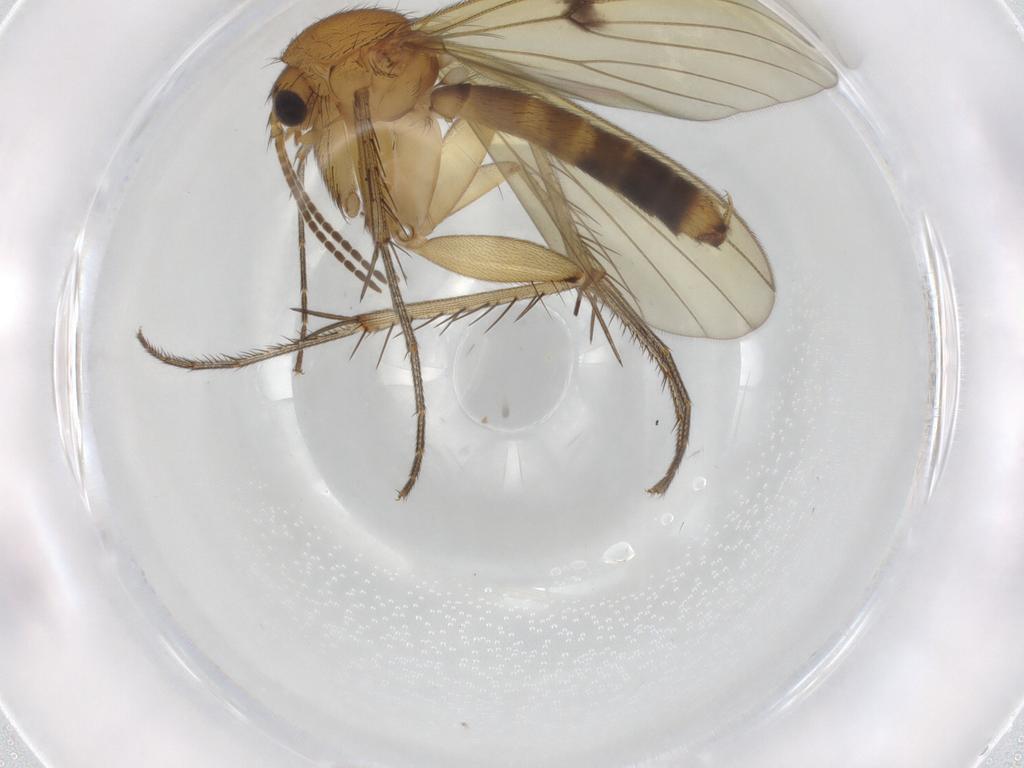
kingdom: Animalia
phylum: Arthropoda
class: Insecta
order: Diptera
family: Mycetophilidae
